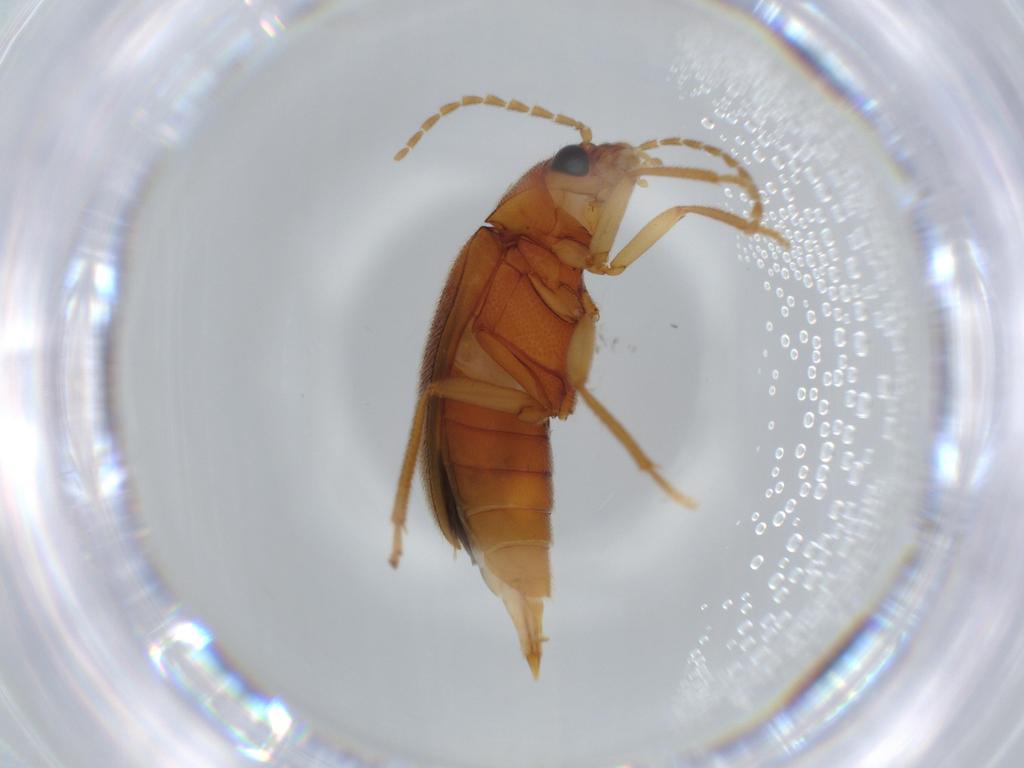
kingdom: Animalia
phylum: Arthropoda
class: Insecta
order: Coleoptera
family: Ptilodactylidae
